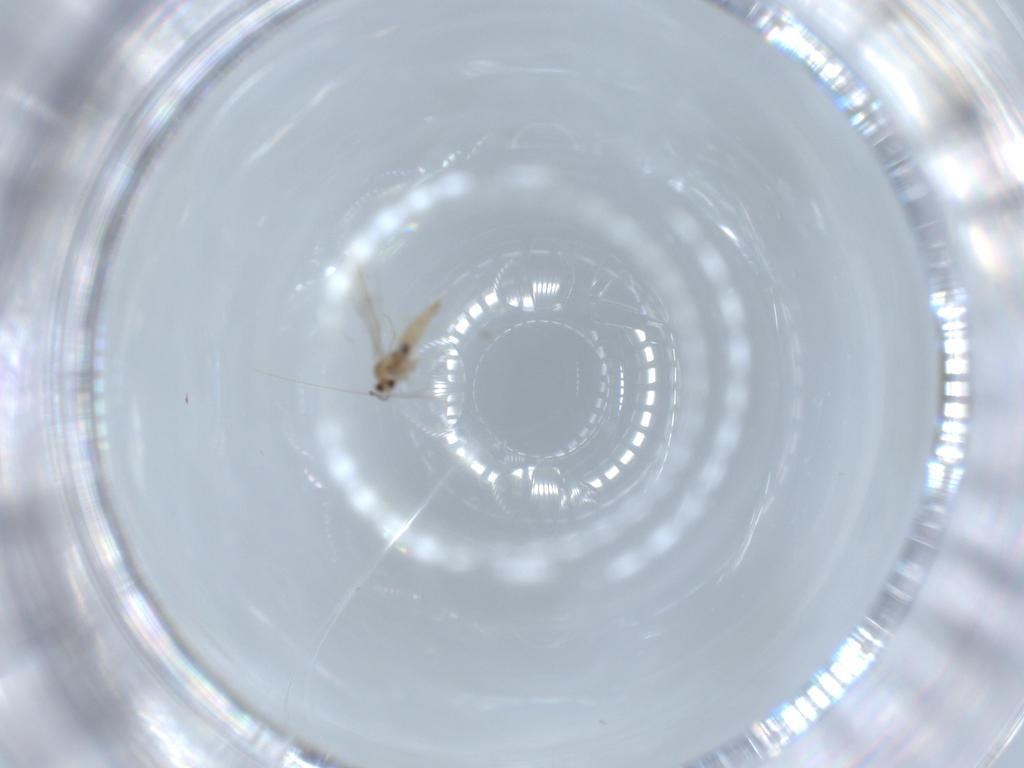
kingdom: Animalia
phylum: Arthropoda
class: Insecta
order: Diptera
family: Cecidomyiidae
